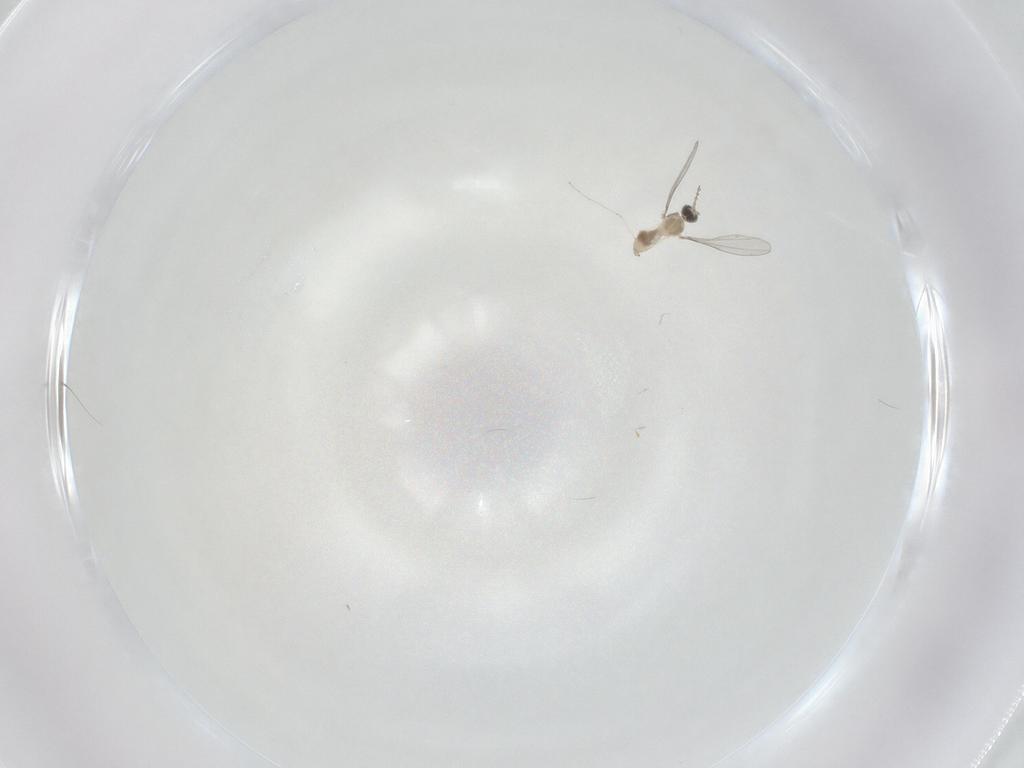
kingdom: Animalia
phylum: Arthropoda
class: Insecta
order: Diptera
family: Cecidomyiidae
